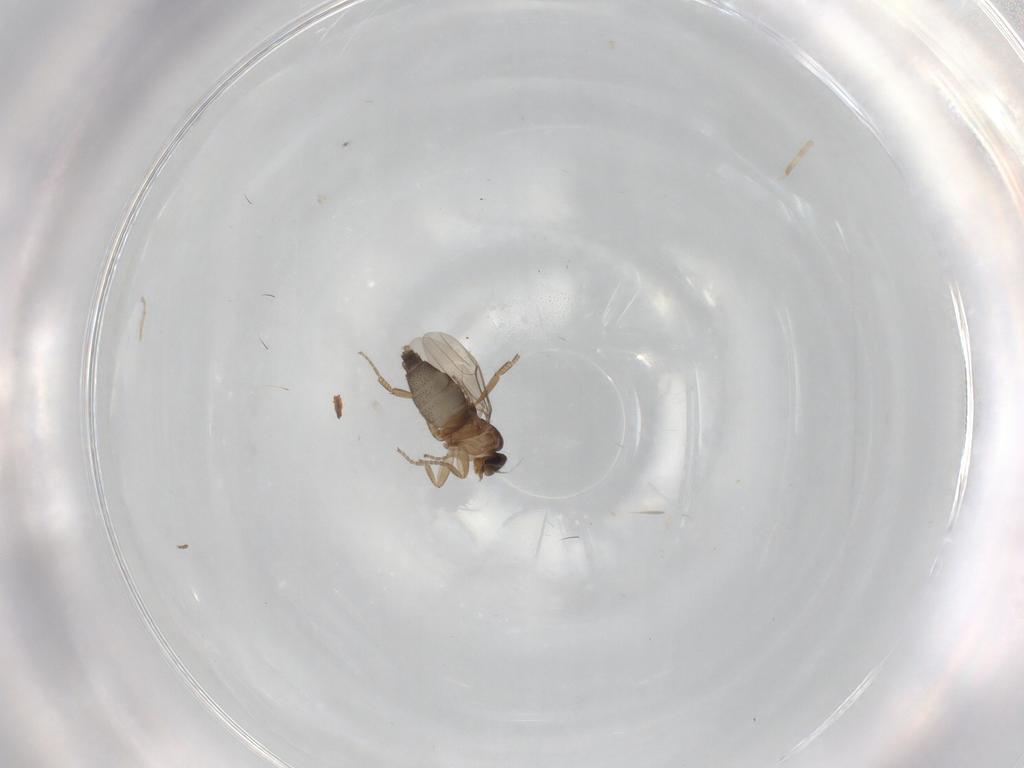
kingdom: Animalia
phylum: Arthropoda
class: Insecta
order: Diptera
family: Phoridae
